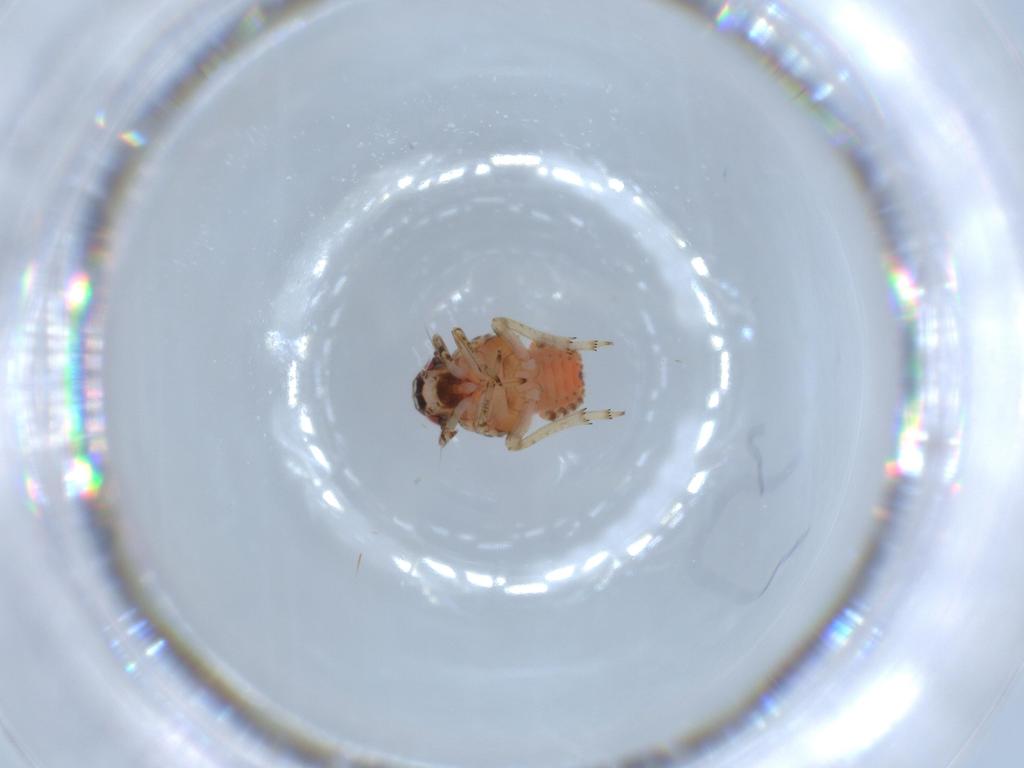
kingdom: Animalia
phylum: Arthropoda
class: Insecta
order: Hemiptera
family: Issidae
